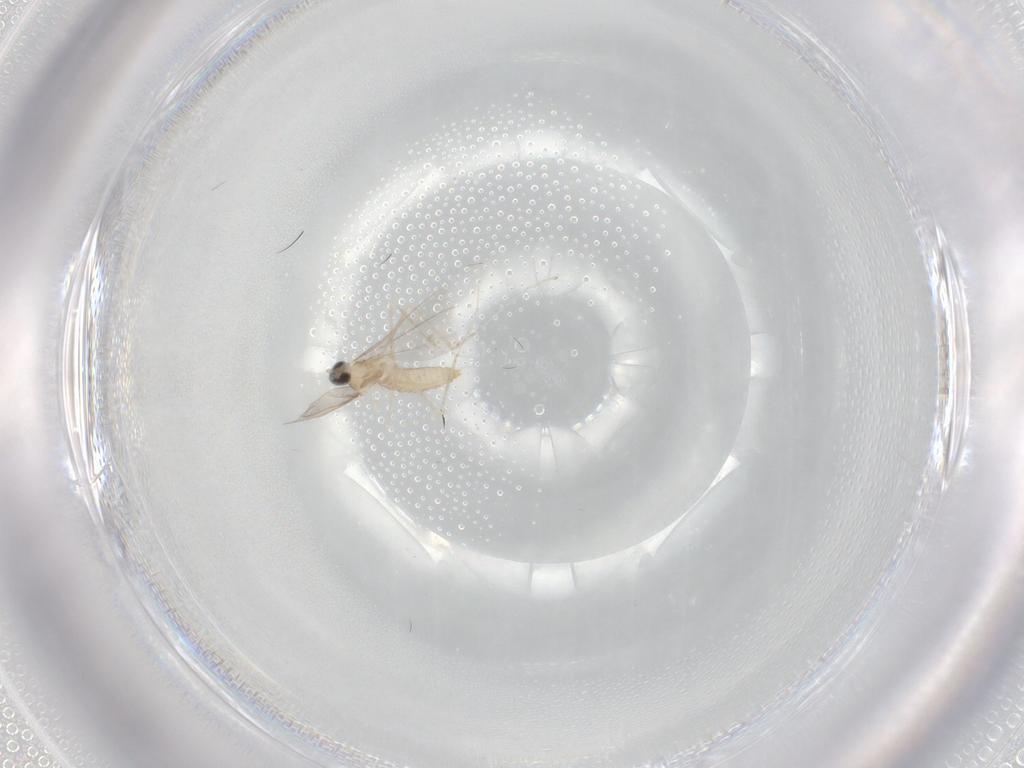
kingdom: Animalia
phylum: Arthropoda
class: Insecta
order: Diptera
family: Cecidomyiidae
